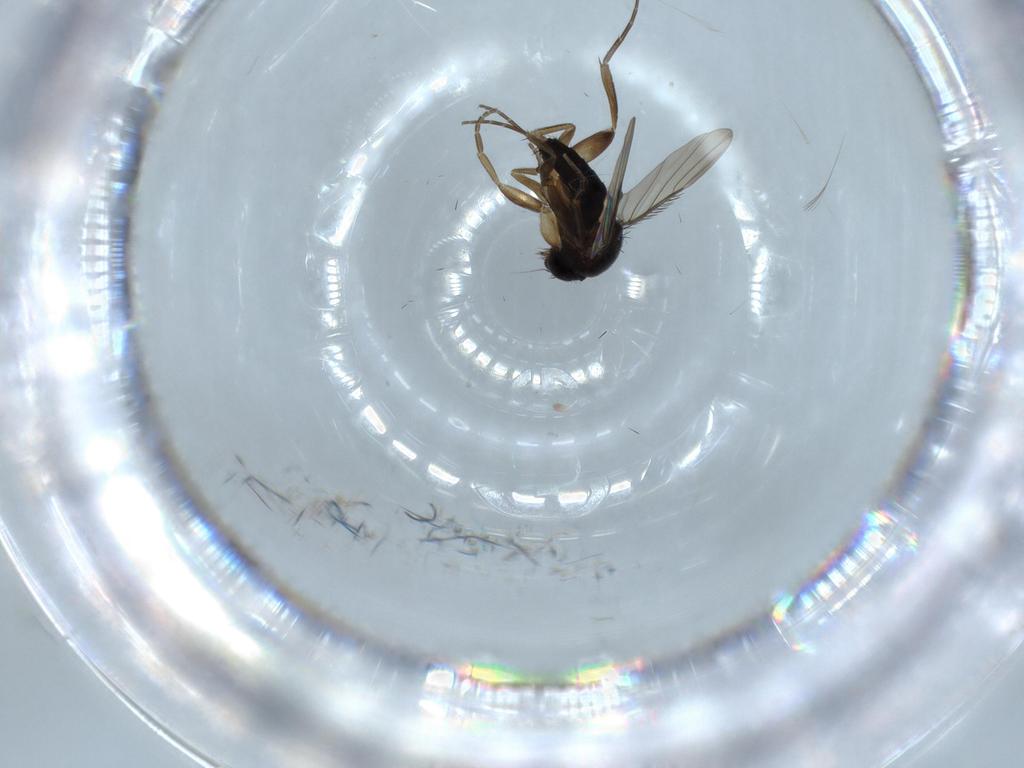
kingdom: Animalia
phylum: Arthropoda
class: Insecta
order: Diptera
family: Phoridae
